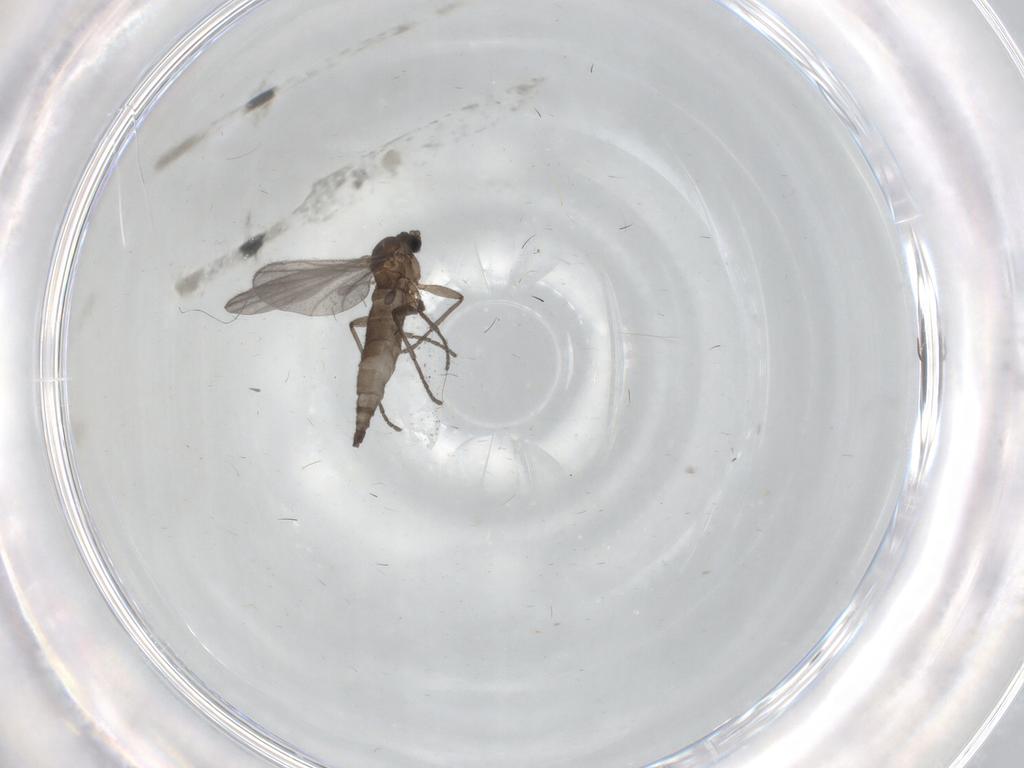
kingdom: Animalia
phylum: Arthropoda
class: Insecta
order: Diptera
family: Sciaridae
